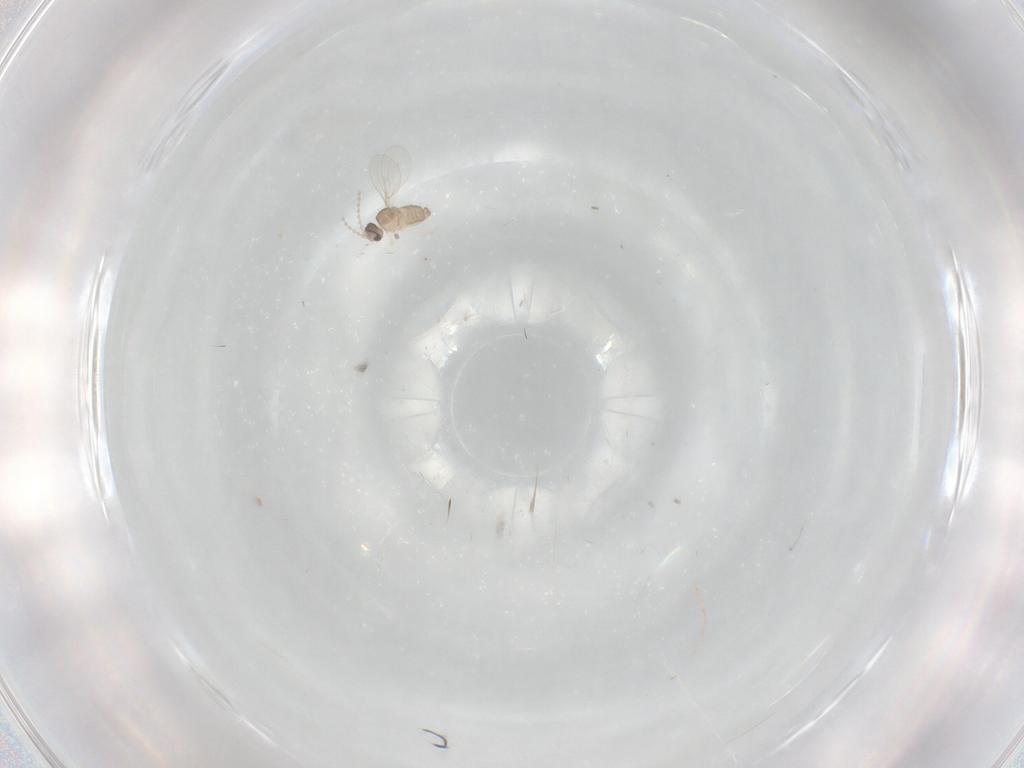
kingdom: Animalia
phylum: Arthropoda
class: Insecta
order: Diptera
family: Cecidomyiidae
